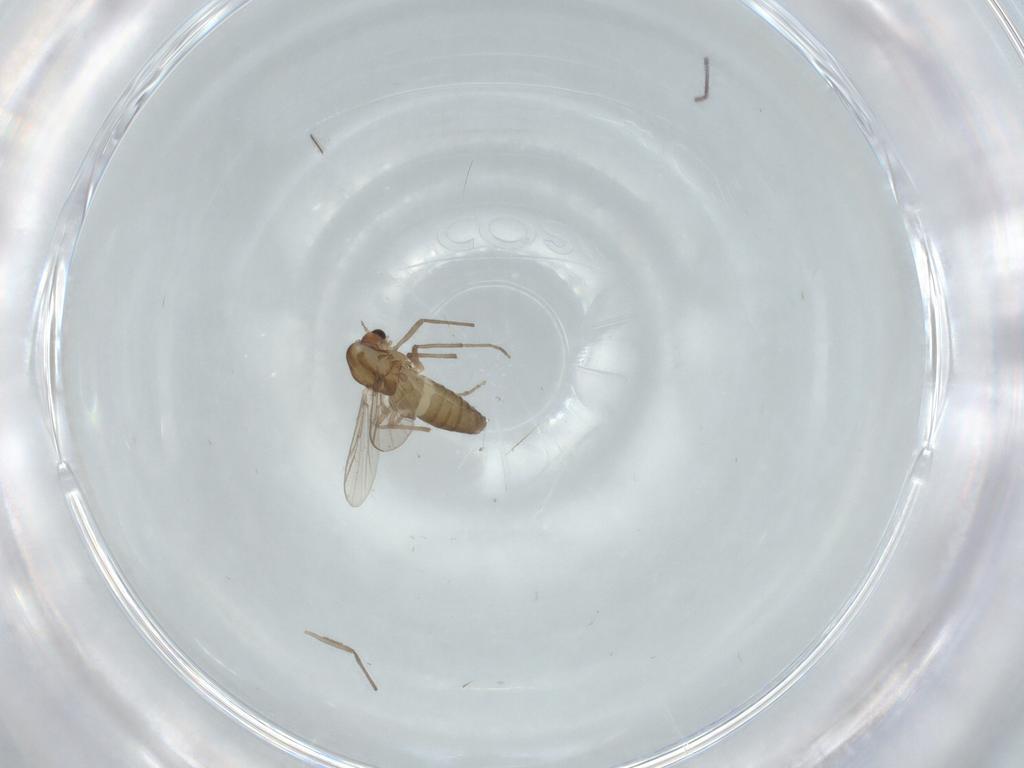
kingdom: Animalia
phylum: Arthropoda
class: Insecta
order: Diptera
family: Chironomidae
